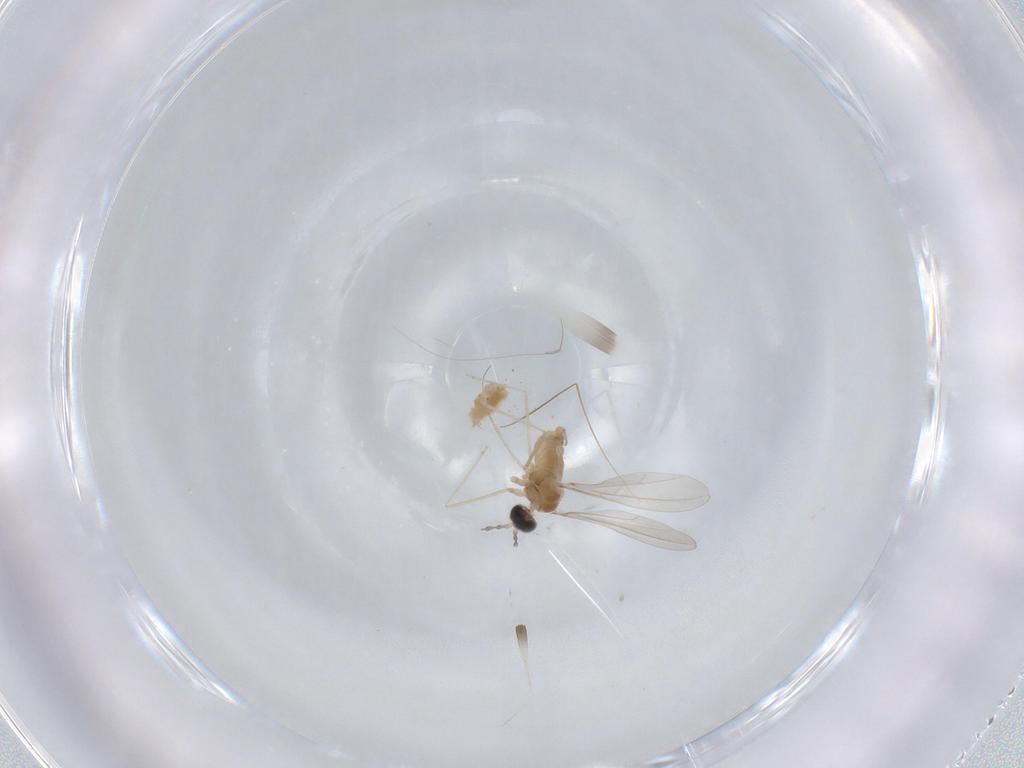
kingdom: Animalia
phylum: Arthropoda
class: Insecta
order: Diptera
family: Cecidomyiidae
